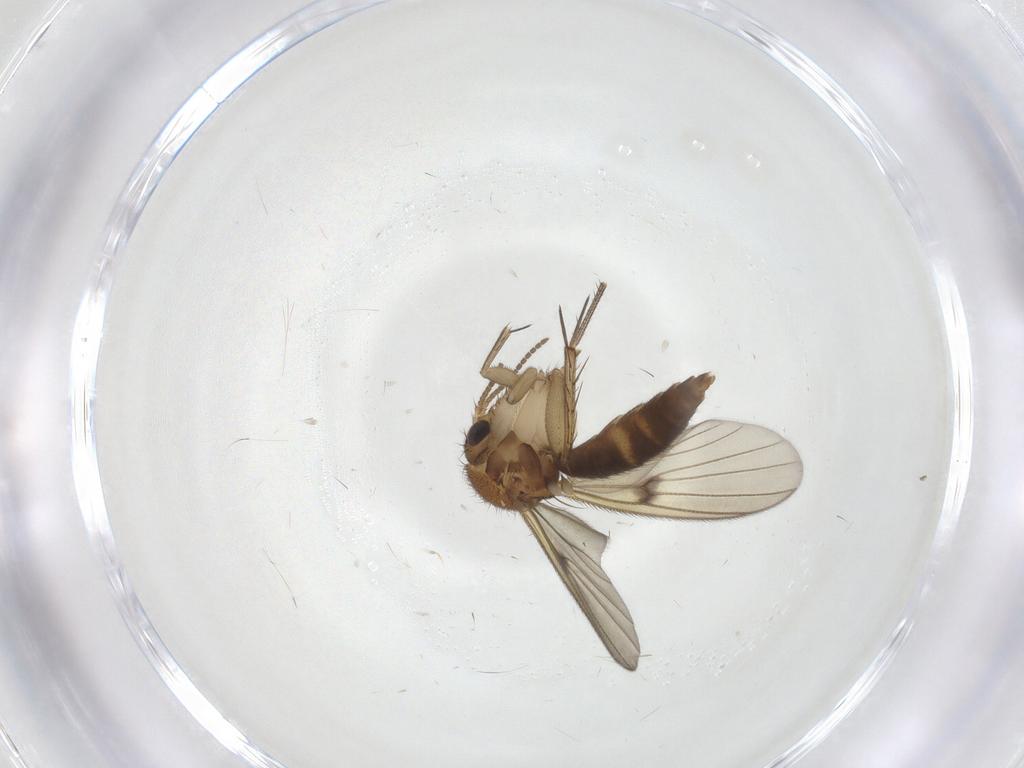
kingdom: Animalia
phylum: Arthropoda
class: Insecta
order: Diptera
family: Mycetophilidae
